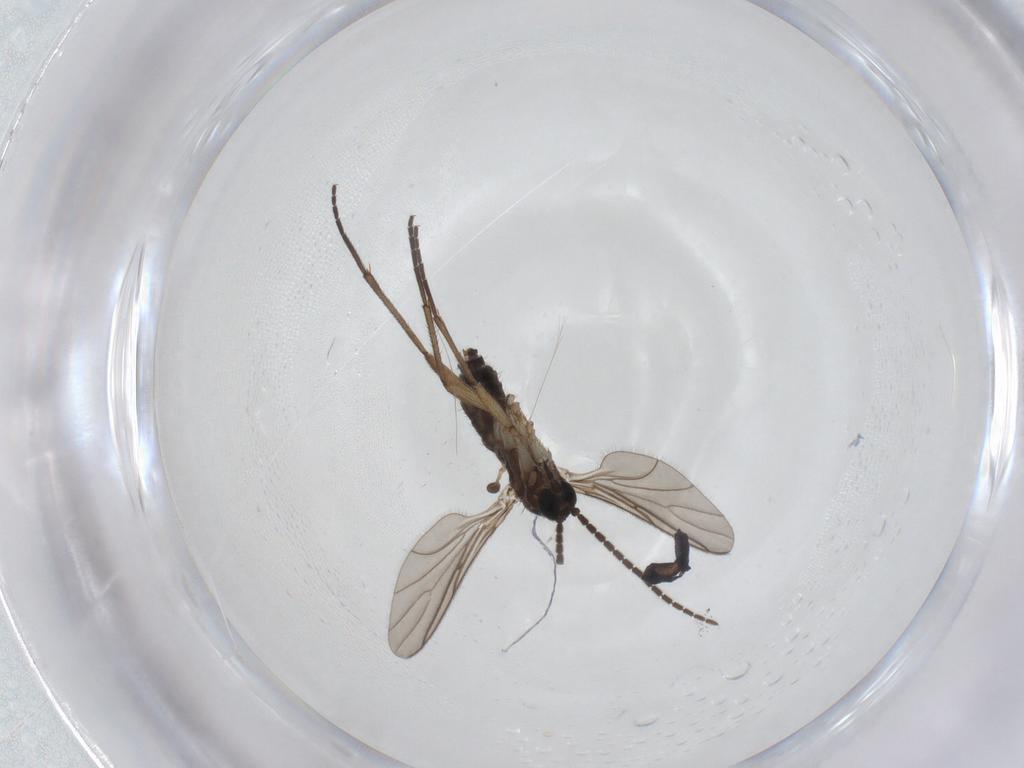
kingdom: Animalia
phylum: Arthropoda
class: Insecta
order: Diptera
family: Sciaridae
